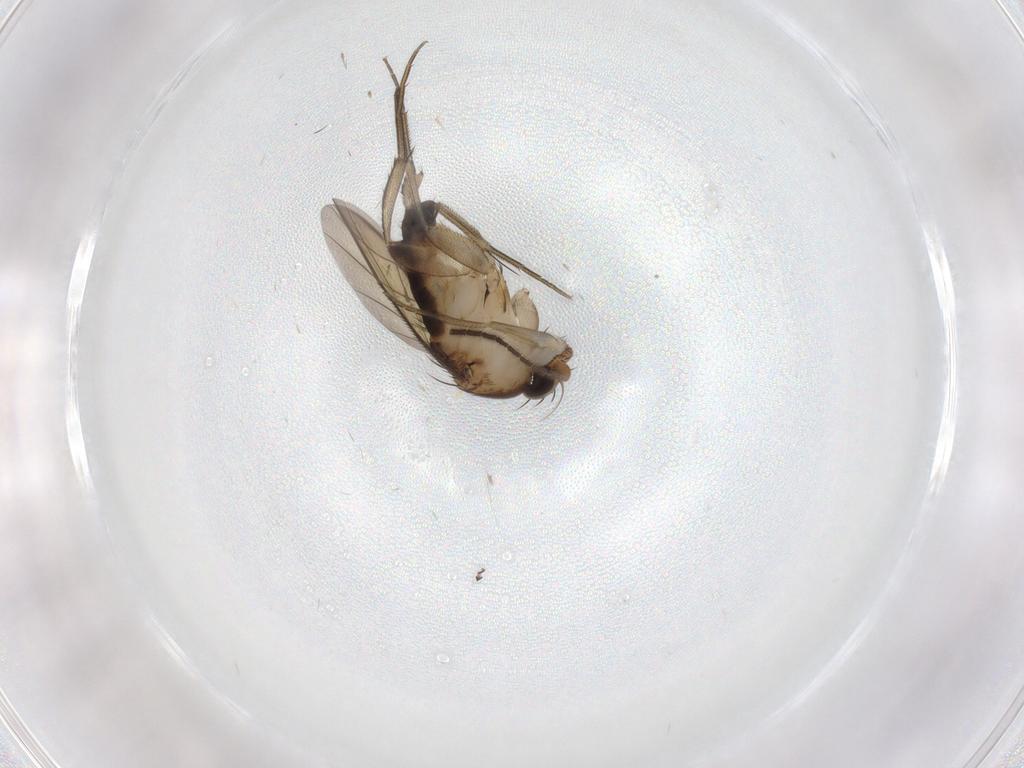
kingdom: Animalia
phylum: Arthropoda
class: Insecta
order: Diptera
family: Phoridae
